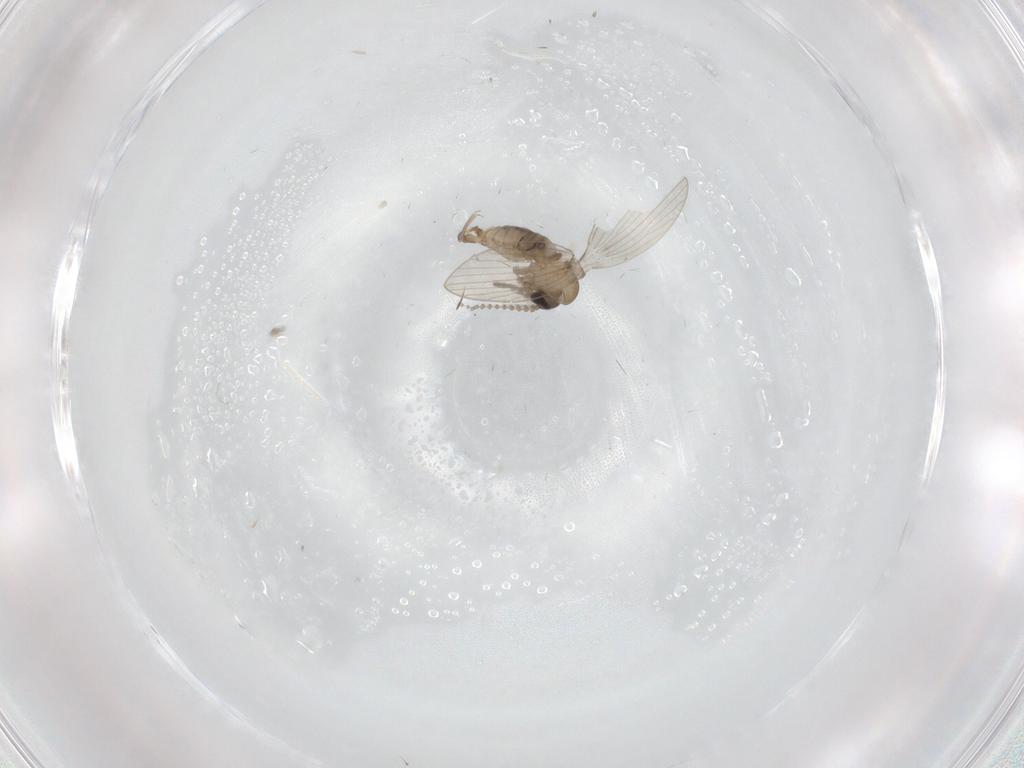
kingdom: Animalia
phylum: Arthropoda
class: Insecta
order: Diptera
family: Psychodidae
